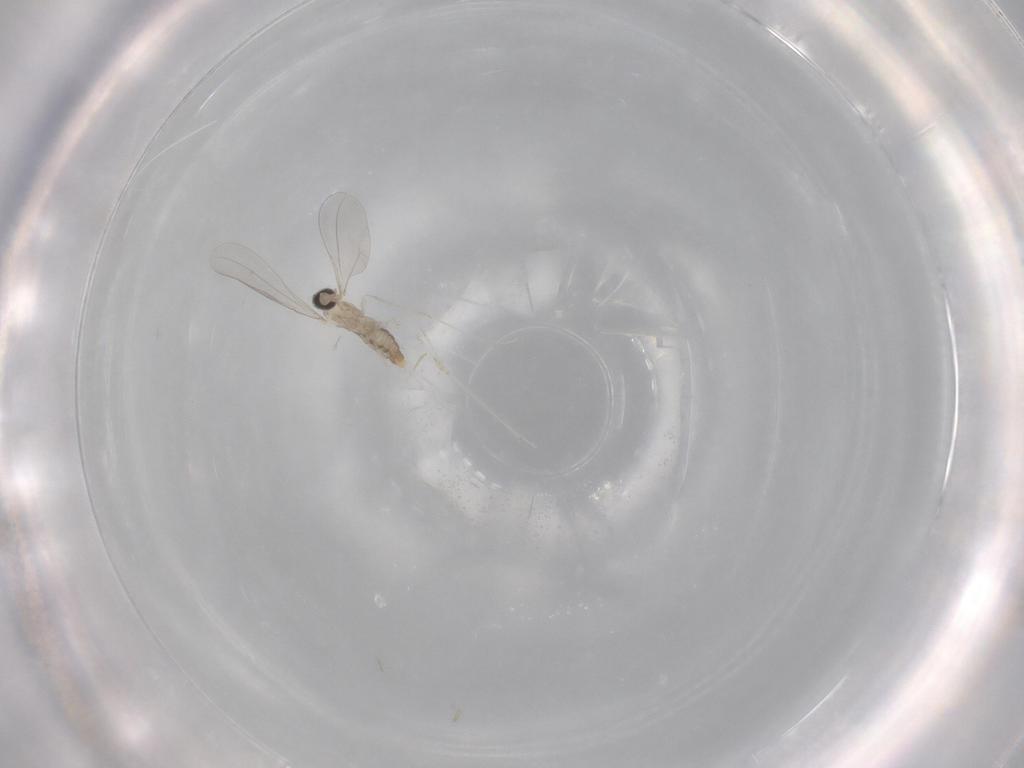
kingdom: Animalia
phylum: Arthropoda
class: Insecta
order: Diptera
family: Cecidomyiidae
